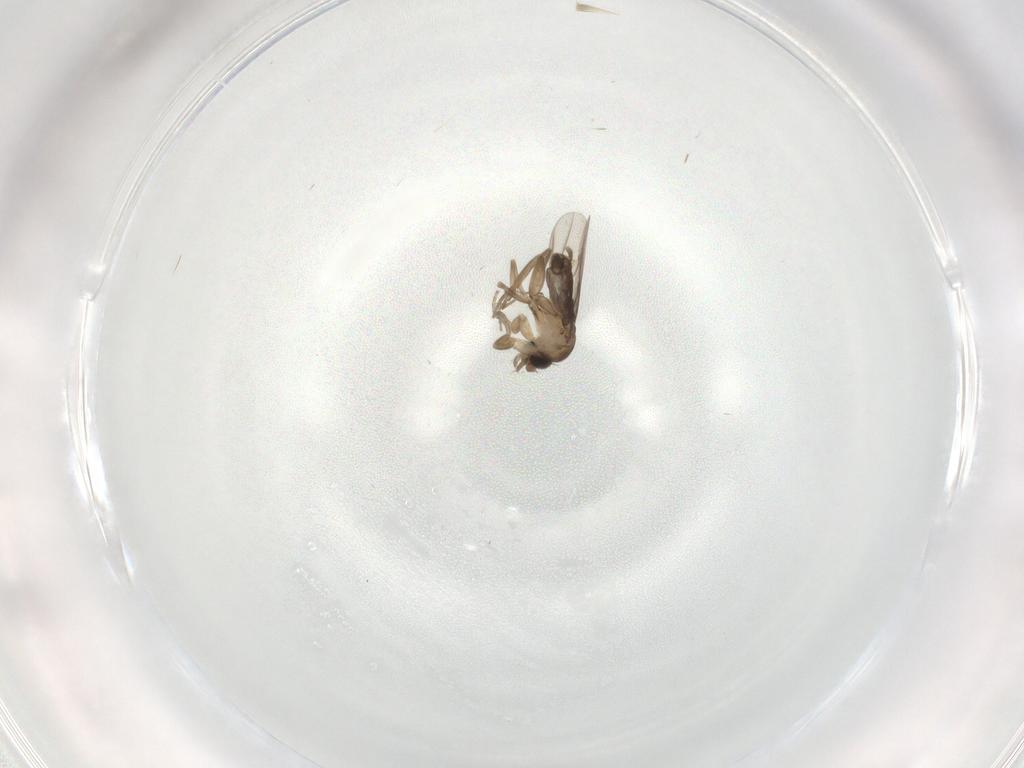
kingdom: Animalia
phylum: Arthropoda
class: Insecta
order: Diptera
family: Phoridae
